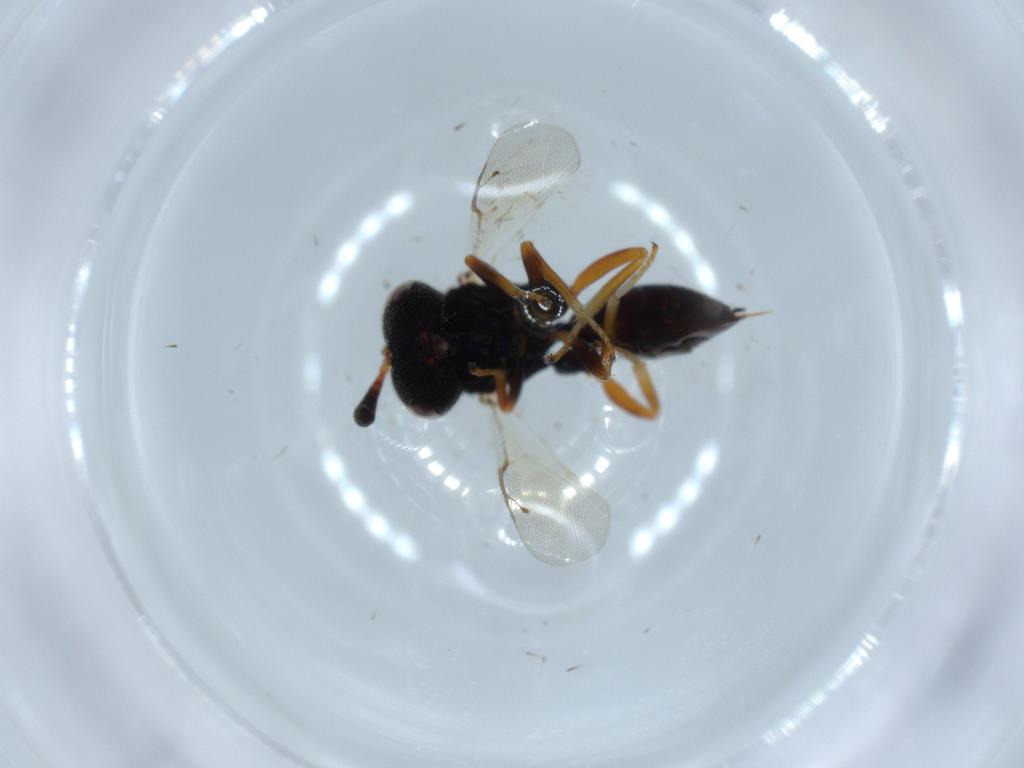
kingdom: Animalia
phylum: Arthropoda
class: Insecta
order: Hymenoptera
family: Agaonidae
